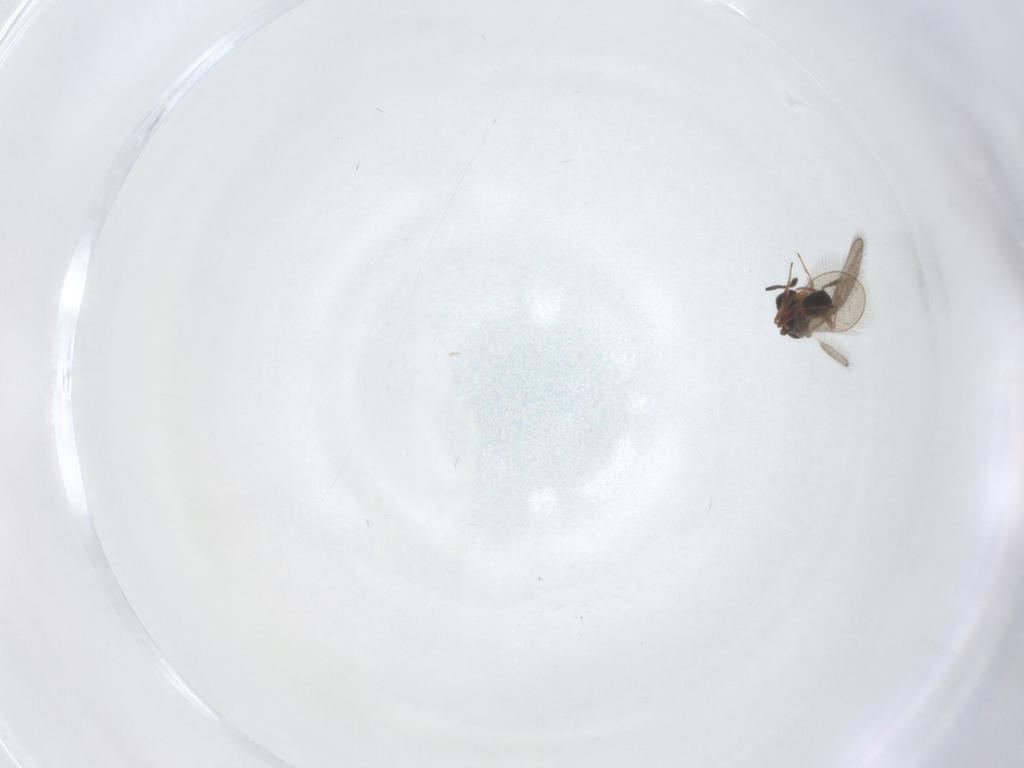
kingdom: Animalia
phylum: Arthropoda
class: Insecta
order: Hymenoptera
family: Platygastridae
